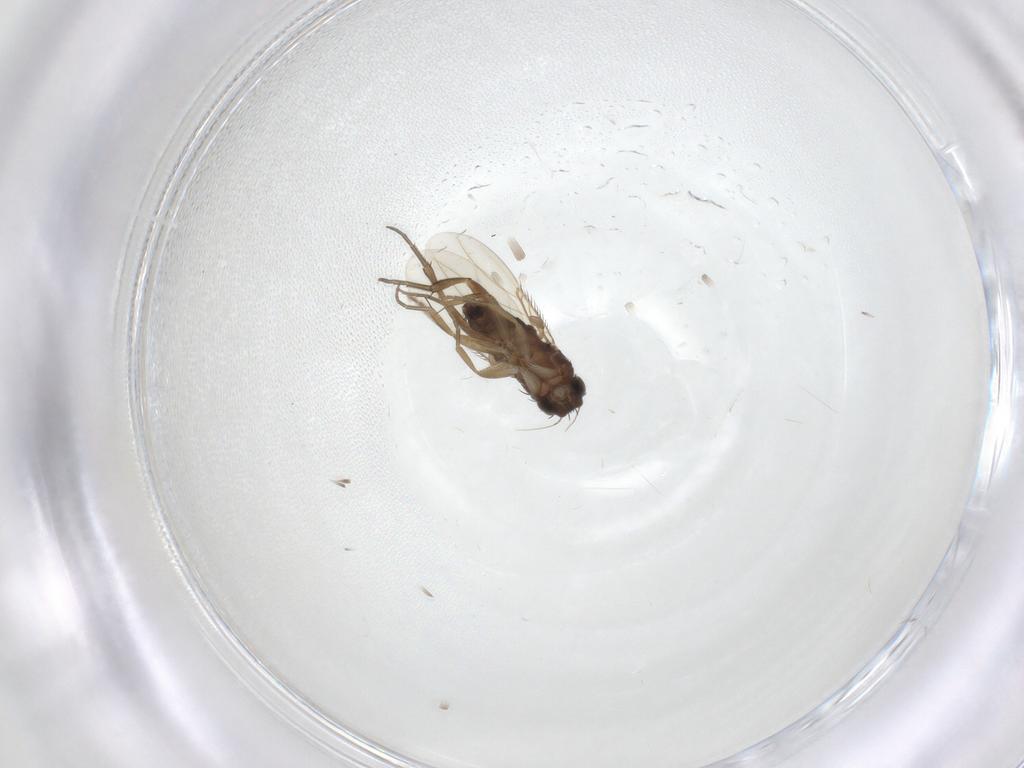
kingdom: Animalia
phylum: Arthropoda
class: Insecta
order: Diptera
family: Phoridae
